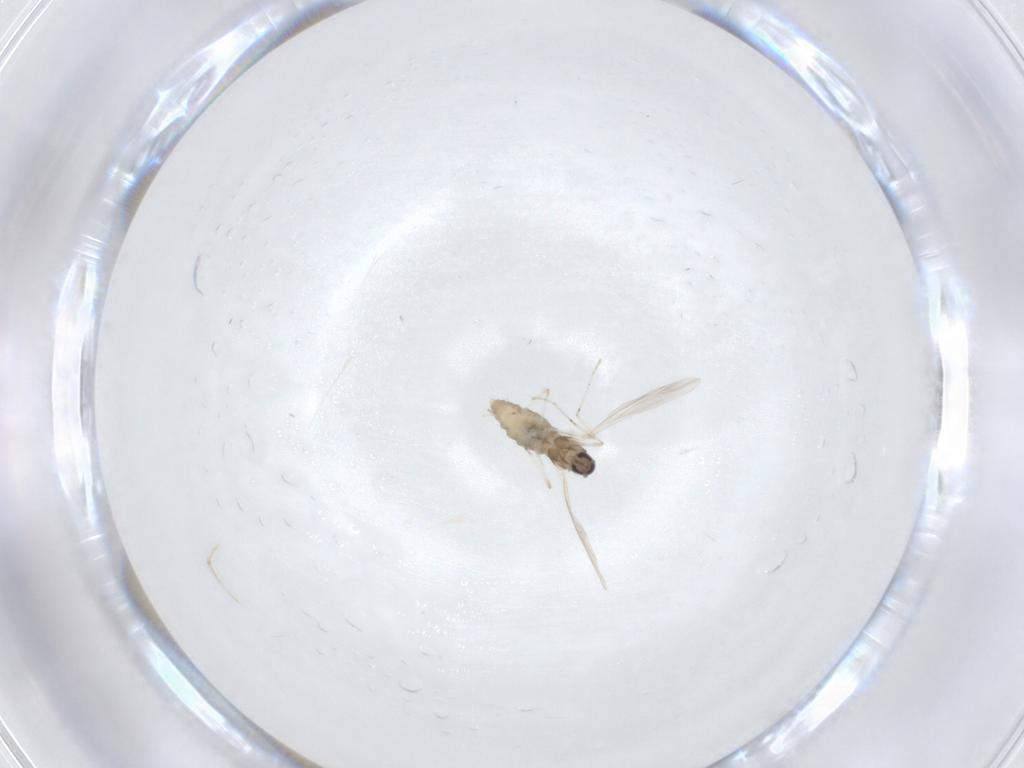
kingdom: Animalia
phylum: Arthropoda
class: Insecta
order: Diptera
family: Cecidomyiidae
